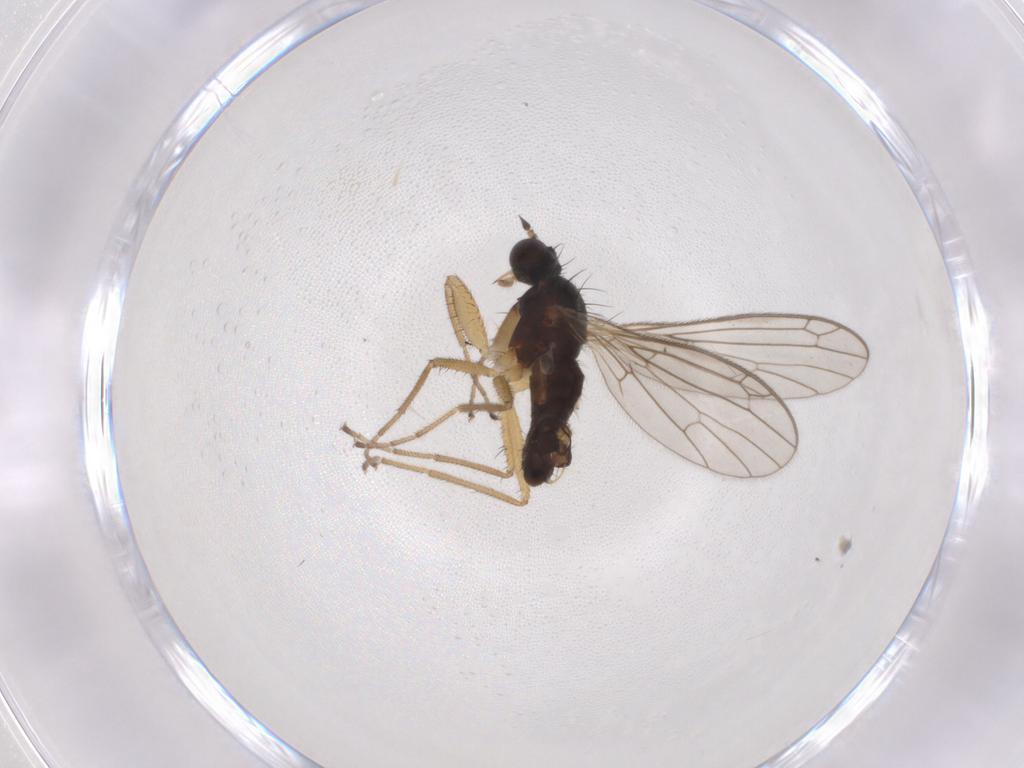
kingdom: Animalia
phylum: Arthropoda
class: Insecta
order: Diptera
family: Empididae
